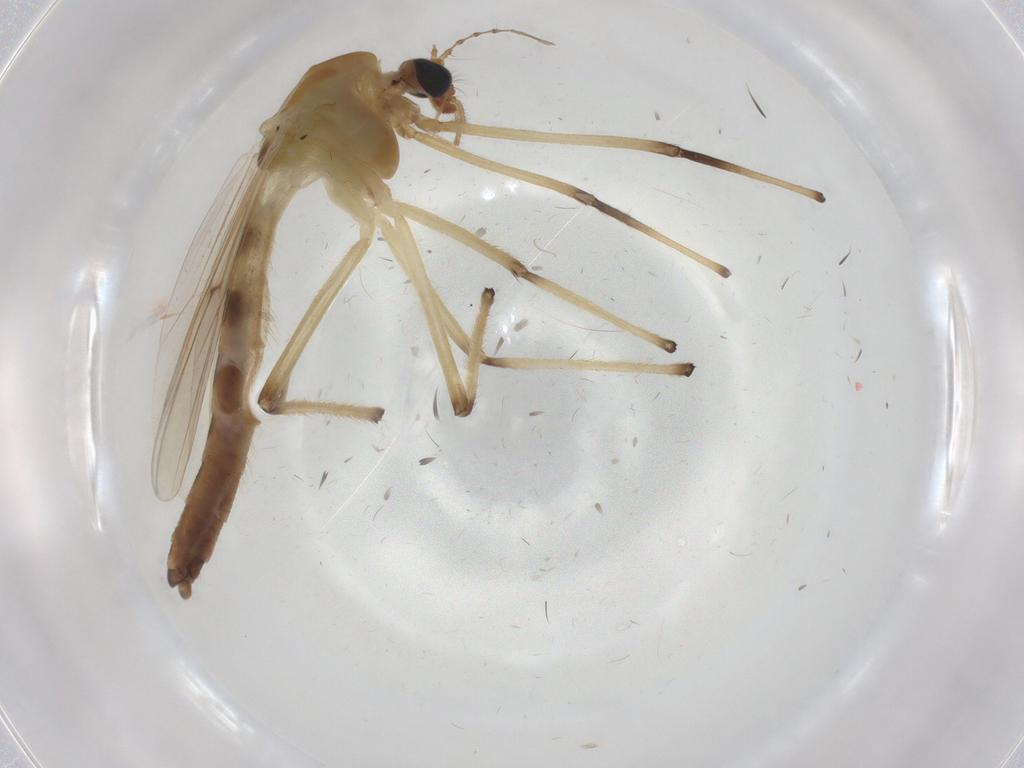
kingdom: Animalia
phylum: Arthropoda
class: Insecta
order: Diptera
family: Chironomidae
